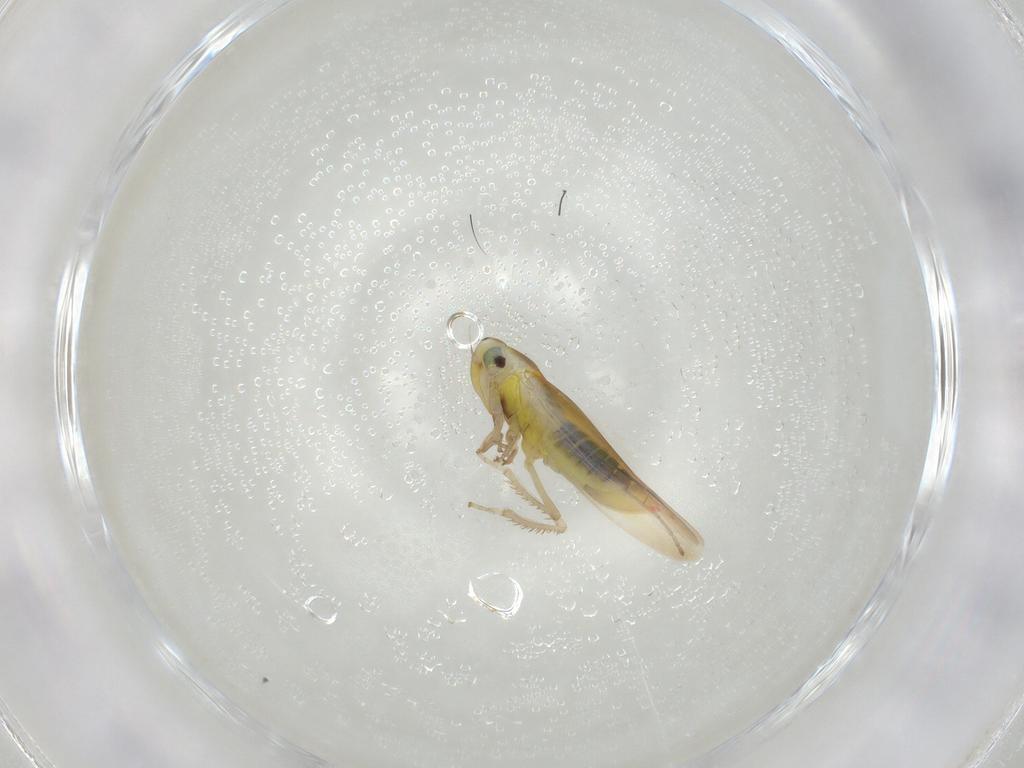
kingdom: Animalia
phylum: Arthropoda
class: Insecta
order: Hemiptera
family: Cicadellidae
